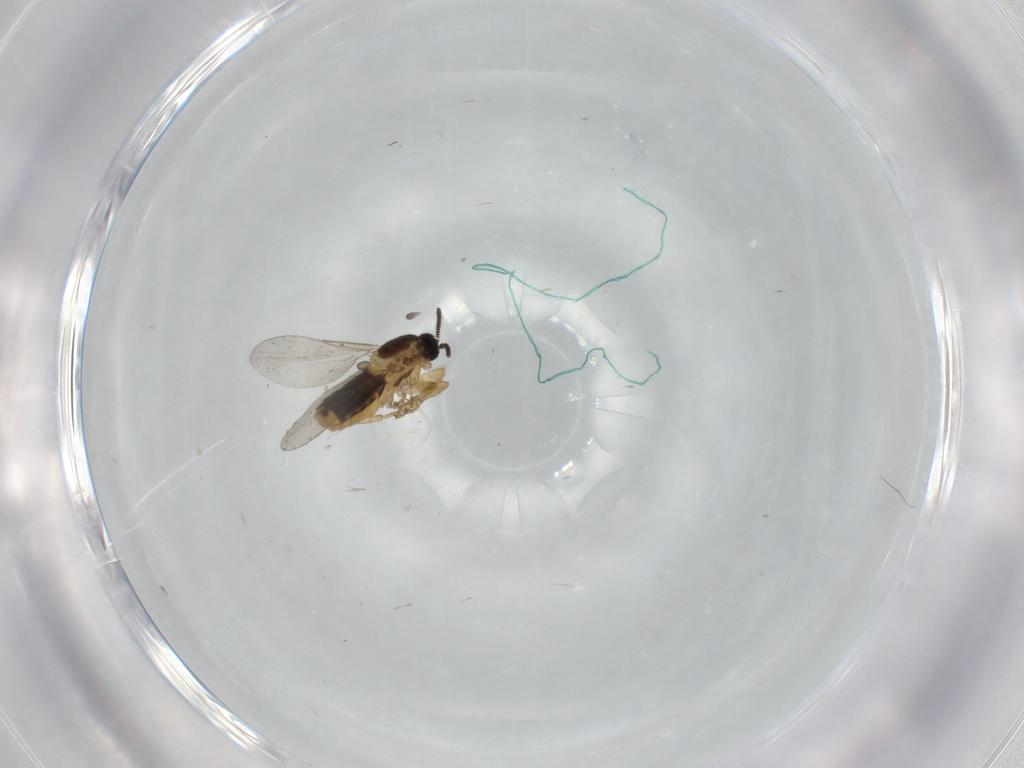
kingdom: Animalia
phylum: Arthropoda
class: Insecta
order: Diptera
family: Scatopsidae
